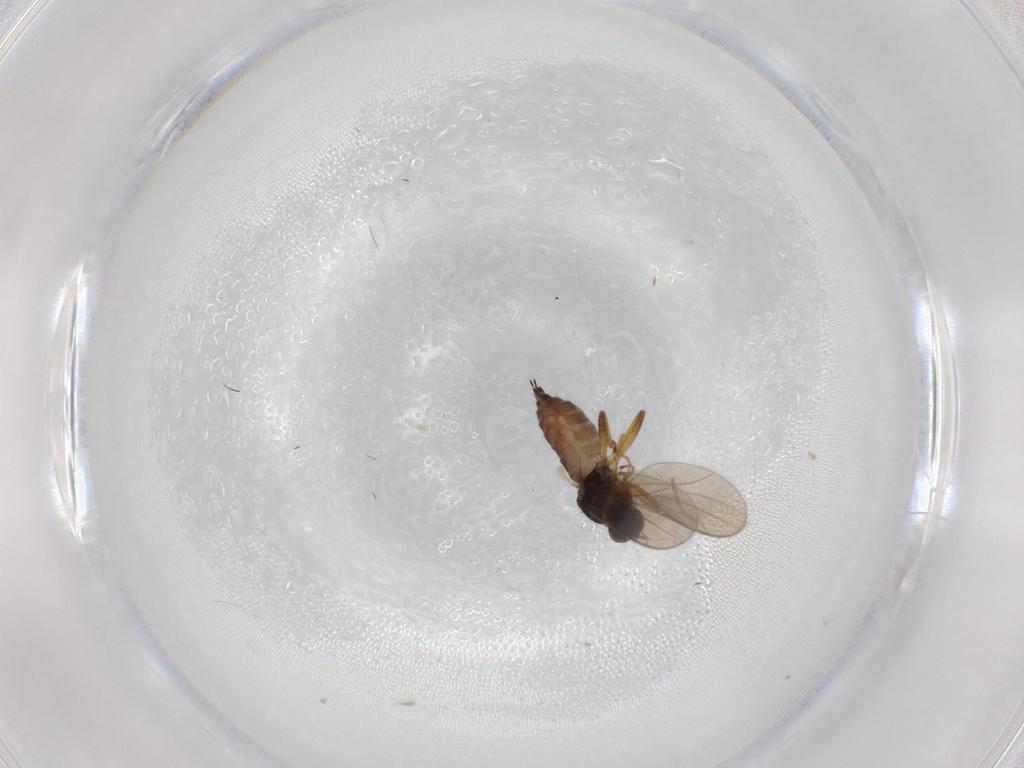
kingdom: Animalia
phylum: Arthropoda
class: Insecta
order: Diptera
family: Hybotidae
